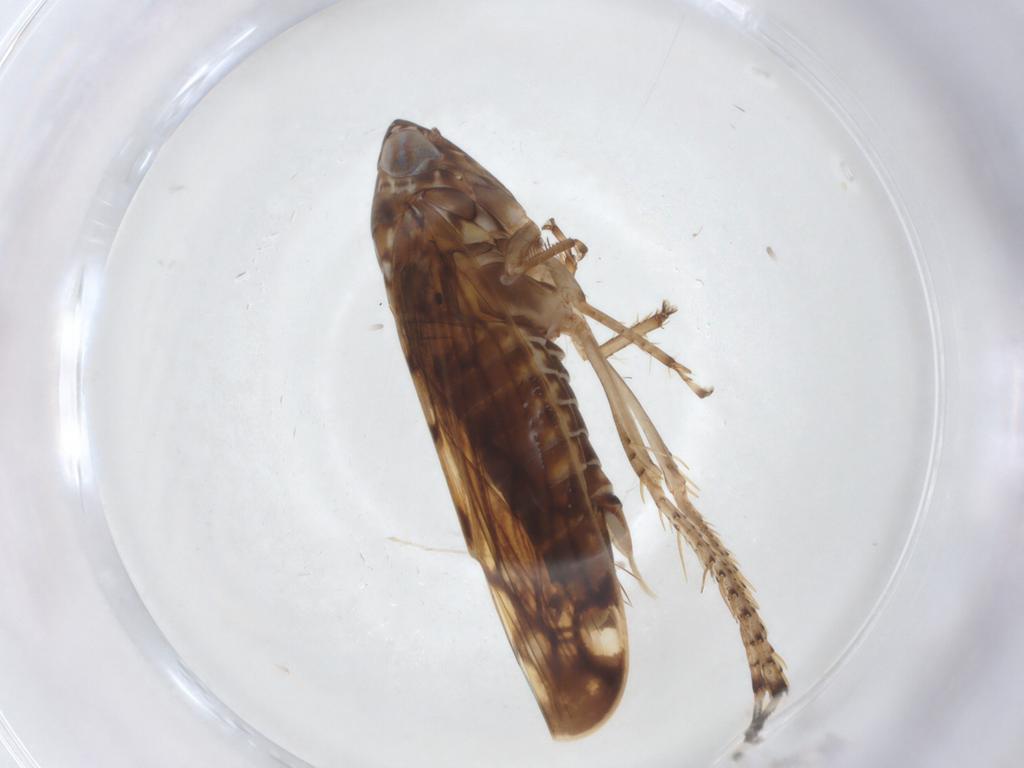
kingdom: Animalia
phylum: Arthropoda
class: Insecta
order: Hemiptera
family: Cicadellidae
